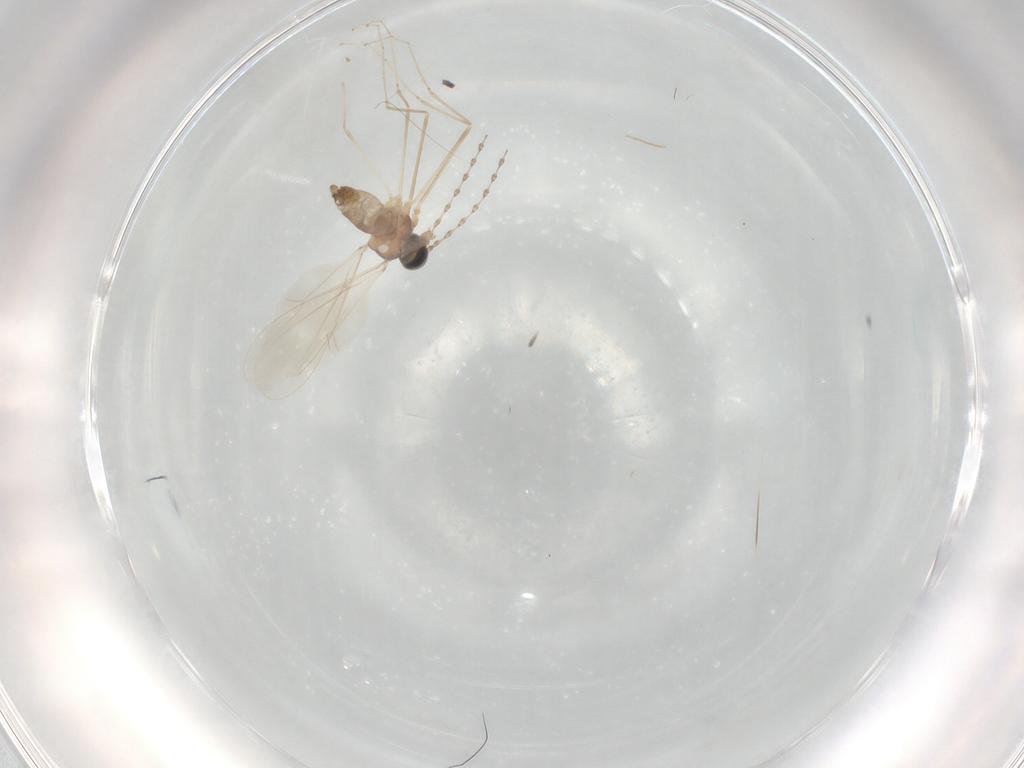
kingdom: Animalia
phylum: Arthropoda
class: Insecta
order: Diptera
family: Cecidomyiidae
